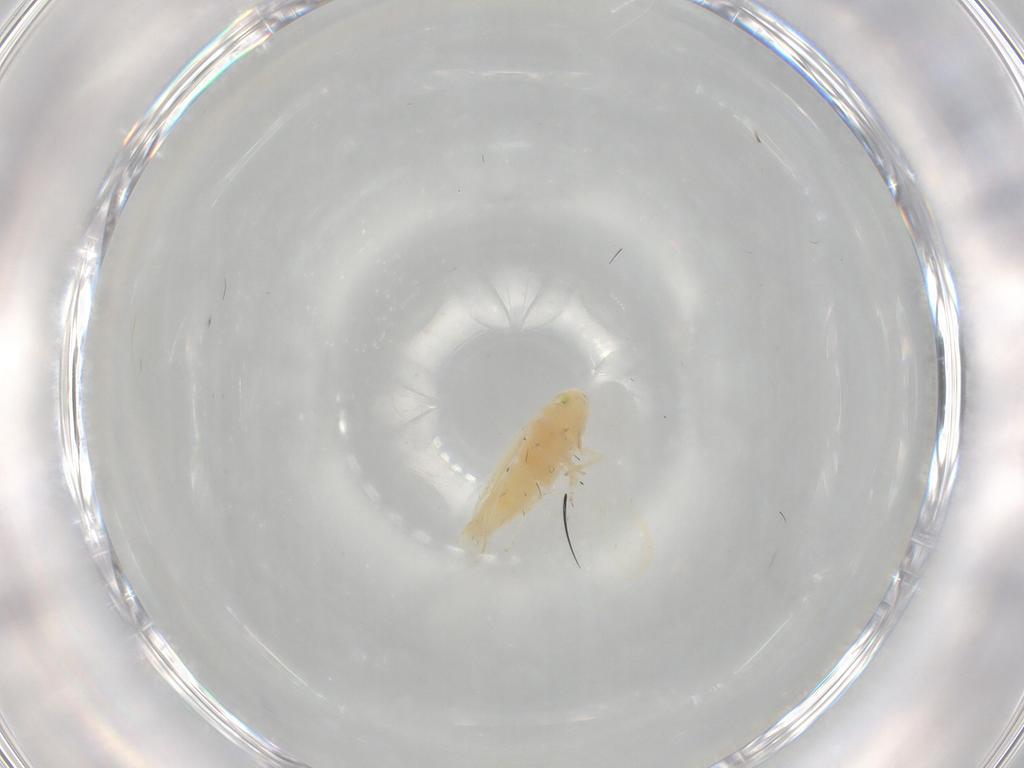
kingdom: Animalia
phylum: Arthropoda
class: Insecta
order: Hemiptera
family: Cicadellidae
